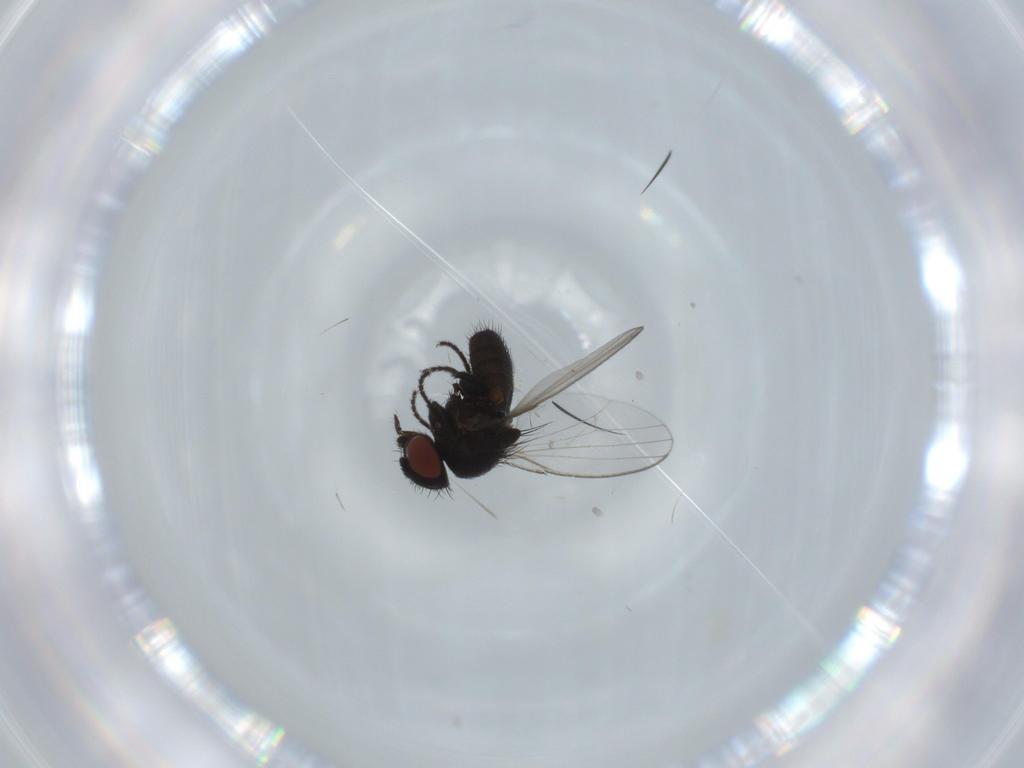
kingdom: Animalia
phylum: Arthropoda
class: Insecta
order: Diptera
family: Milichiidae
